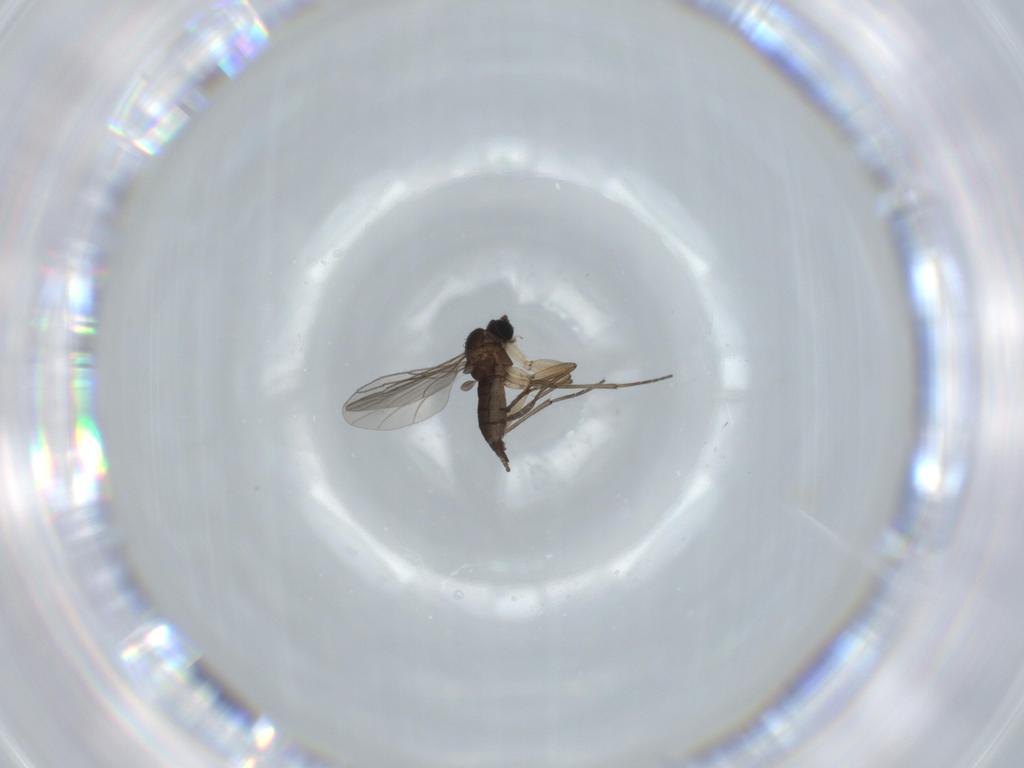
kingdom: Animalia
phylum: Arthropoda
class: Insecta
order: Diptera
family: Sciaridae
